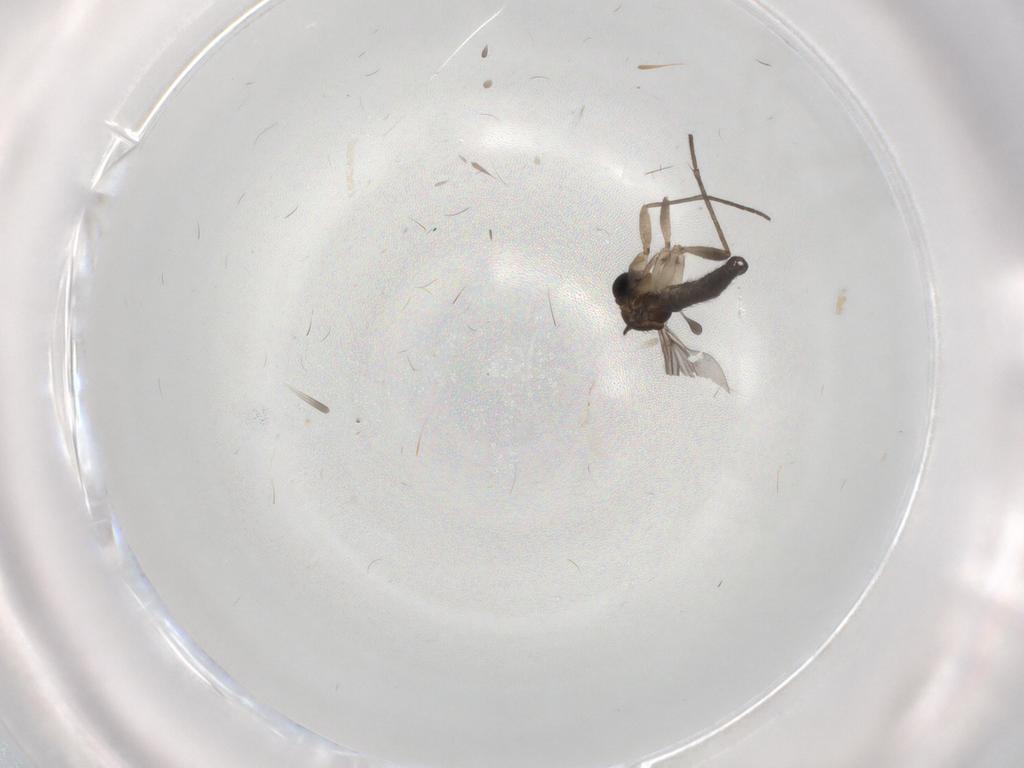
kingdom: Animalia
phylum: Arthropoda
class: Insecta
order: Diptera
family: Sciaridae
